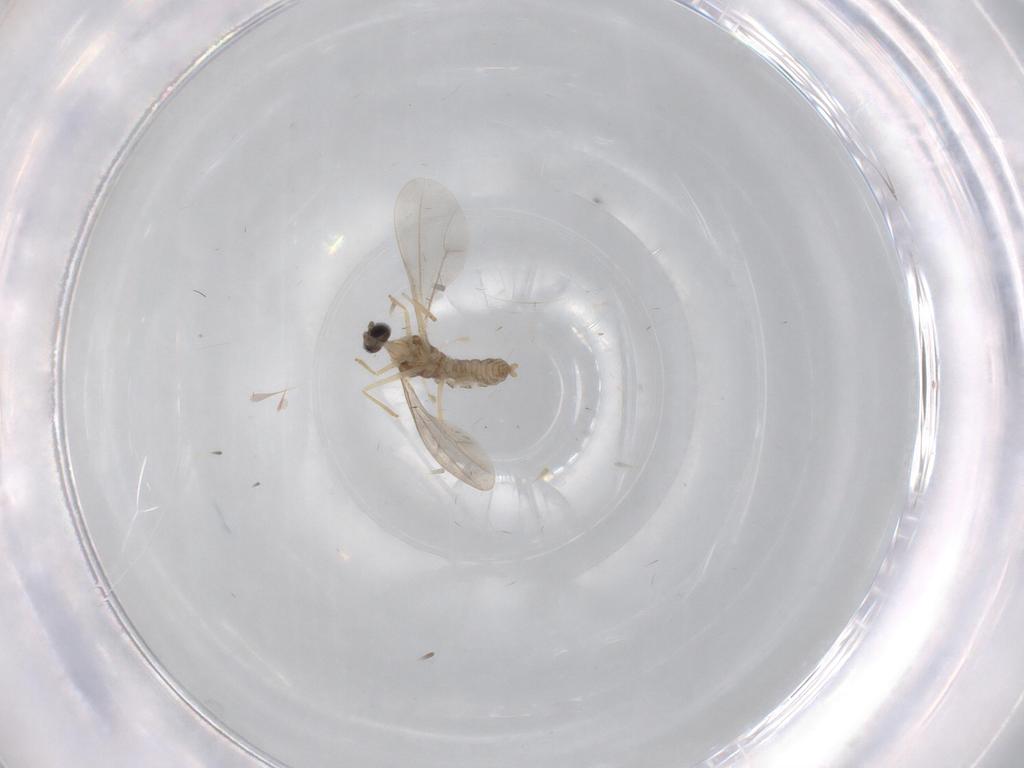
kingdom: Animalia
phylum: Arthropoda
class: Insecta
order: Diptera
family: Cecidomyiidae
